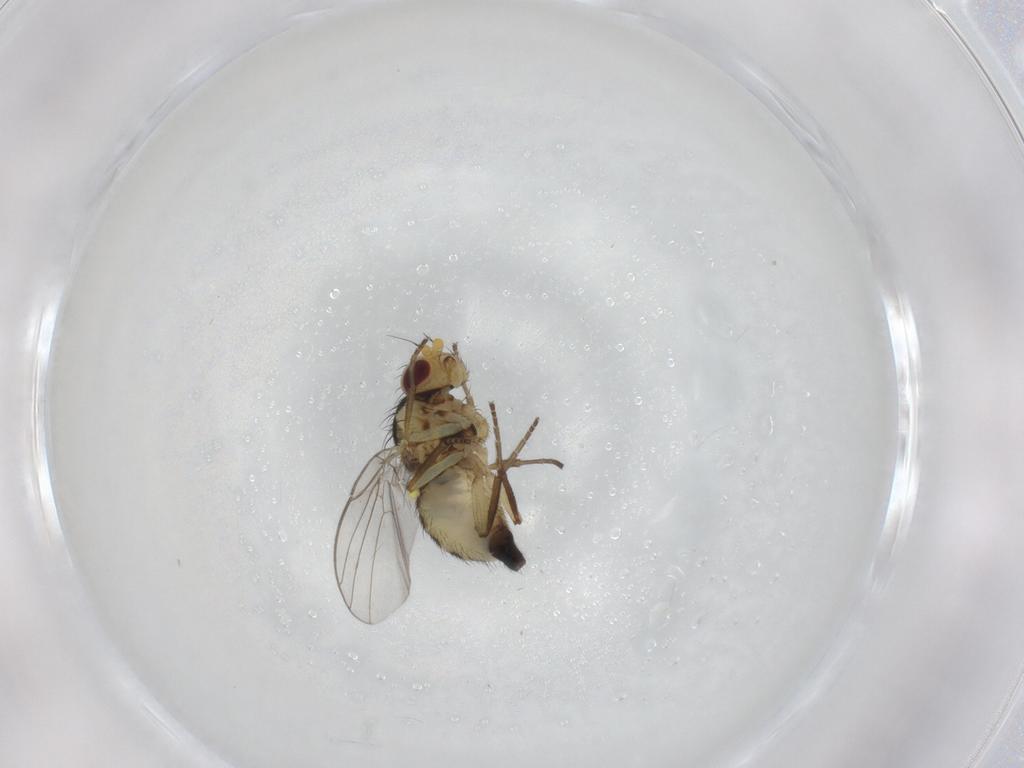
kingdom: Animalia
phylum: Arthropoda
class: Insecta
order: Diptera
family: Agromyzidae
